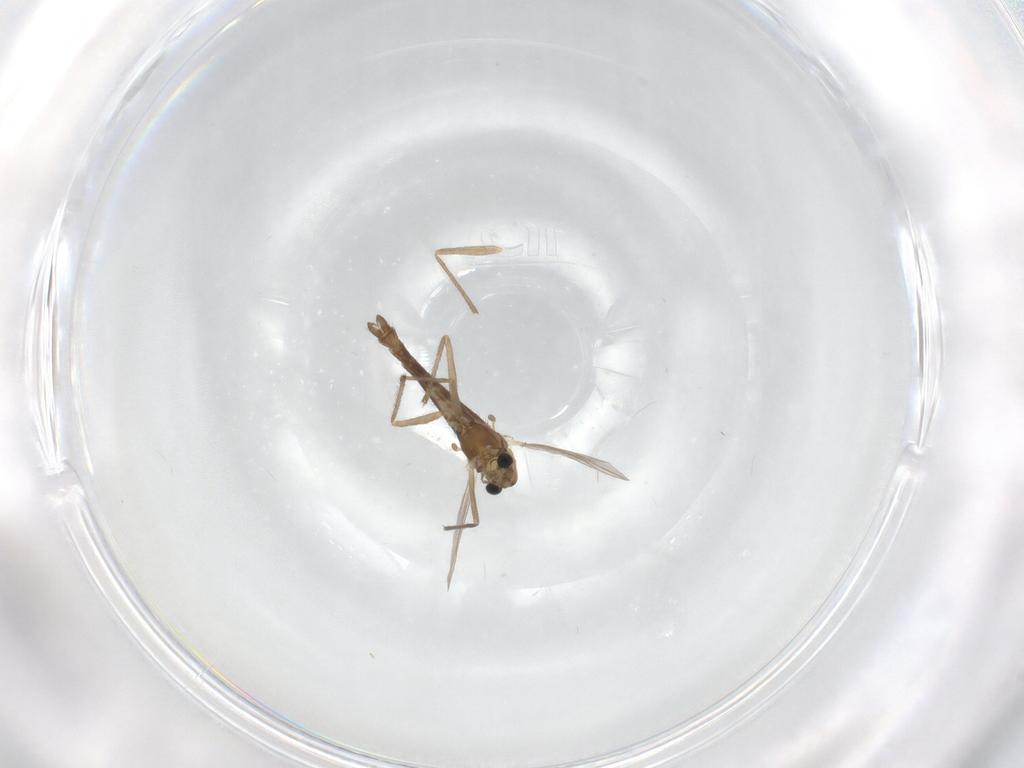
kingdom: Animalia
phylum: Arthropoda
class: Insecta
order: Diptera
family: Chironomidae
